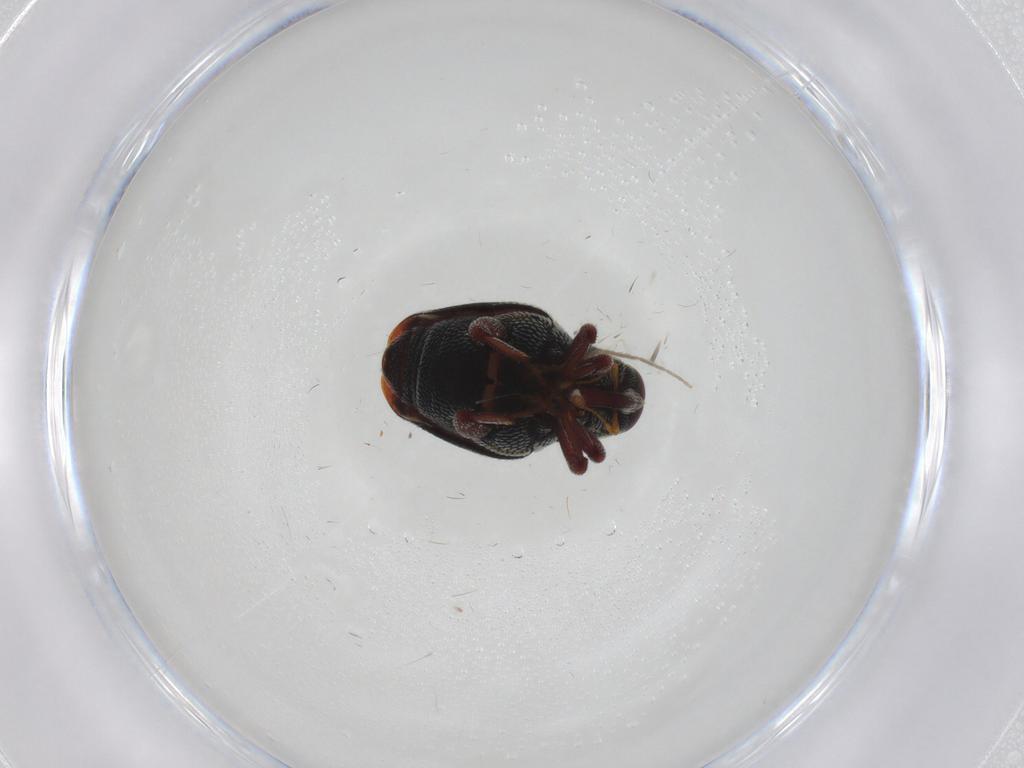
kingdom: Animalia
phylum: Arthropoda
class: Insecta
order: Coleoptera
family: Curculionidae
